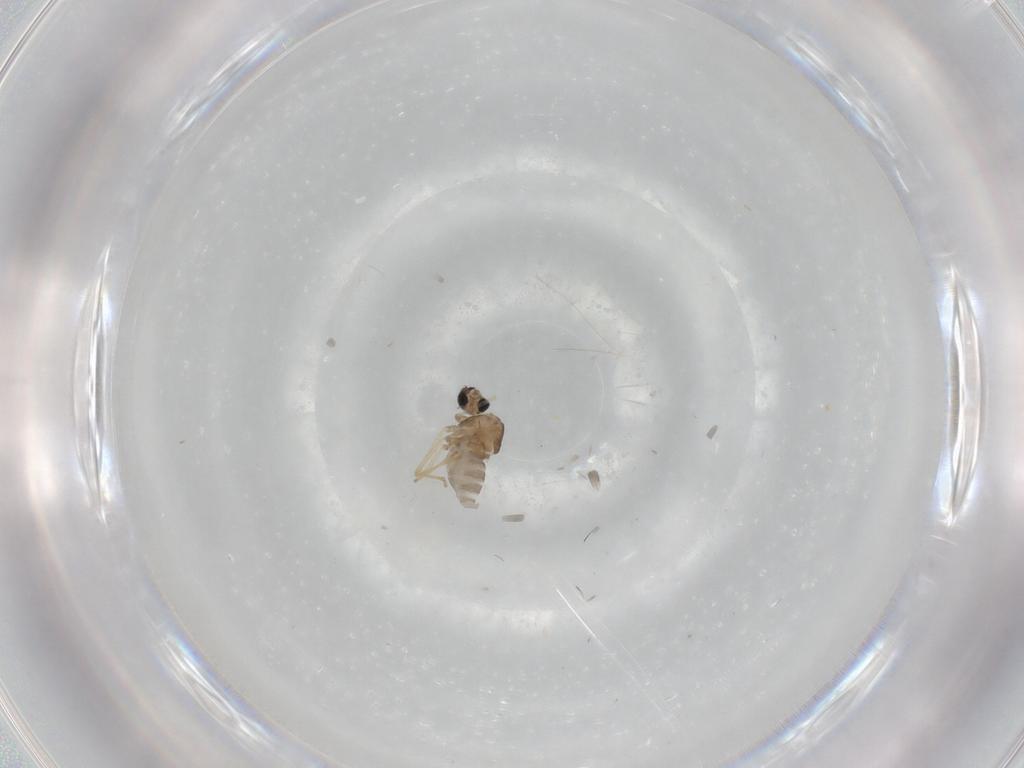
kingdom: Animalia
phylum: Arthropoda
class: Insecta
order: Diptera
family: Cecidomyiidae
